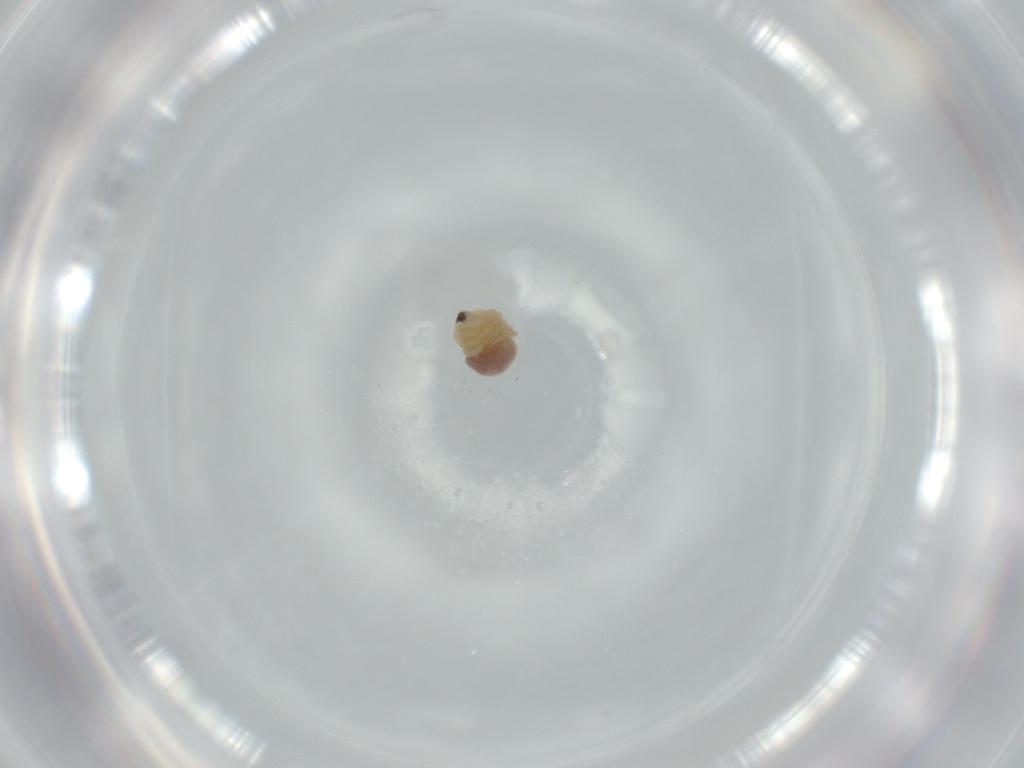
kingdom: Animalia
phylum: Arthropoda
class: Arachnida
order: Araneae
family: Pholcidae
